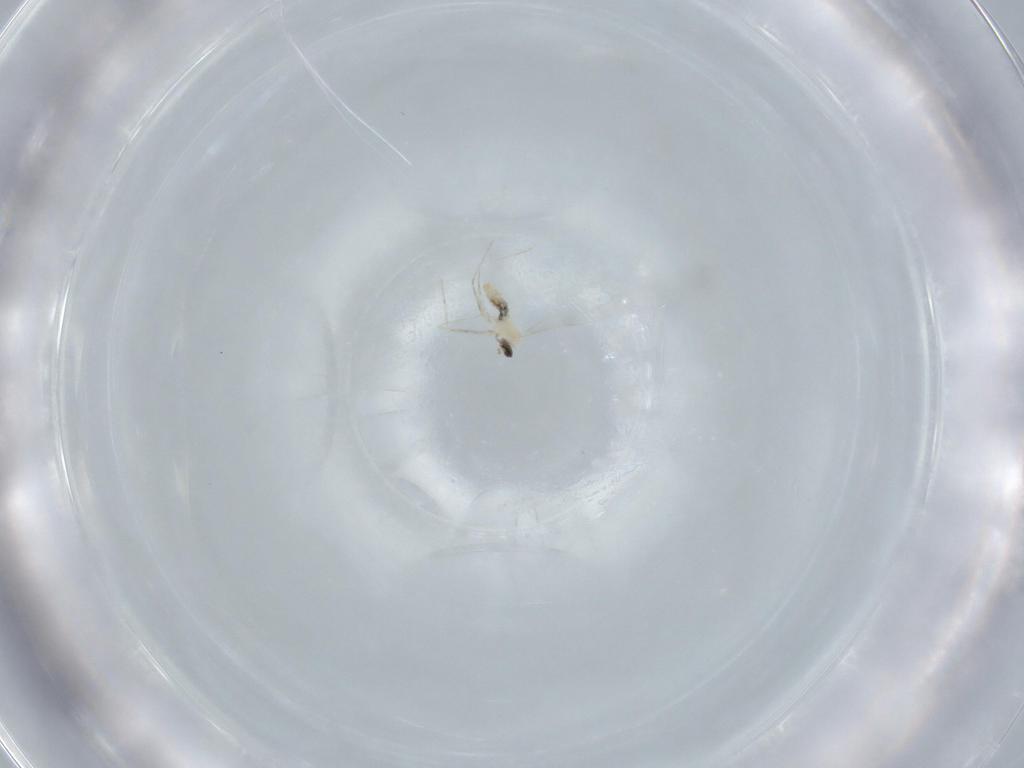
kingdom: Animalia
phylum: Arthropoda
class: Insecta
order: Diptera
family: Cecidomyiidae
